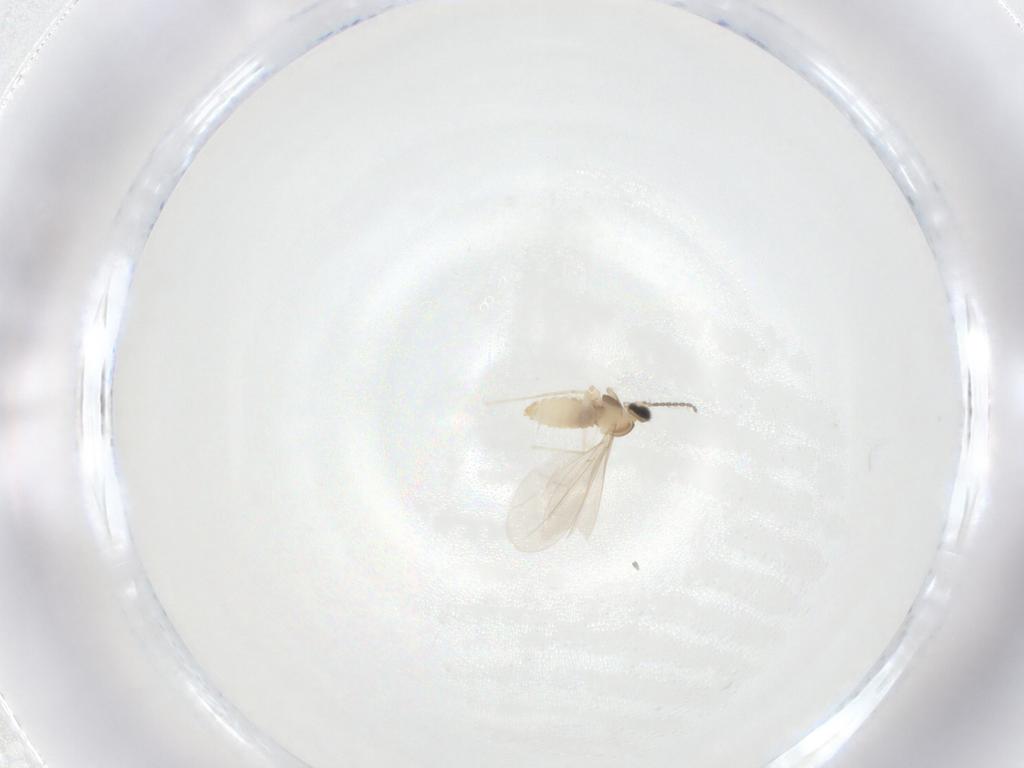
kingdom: Animalia
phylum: Arthropoda
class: Insecta
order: Diptera
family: Cecidomyiidae
